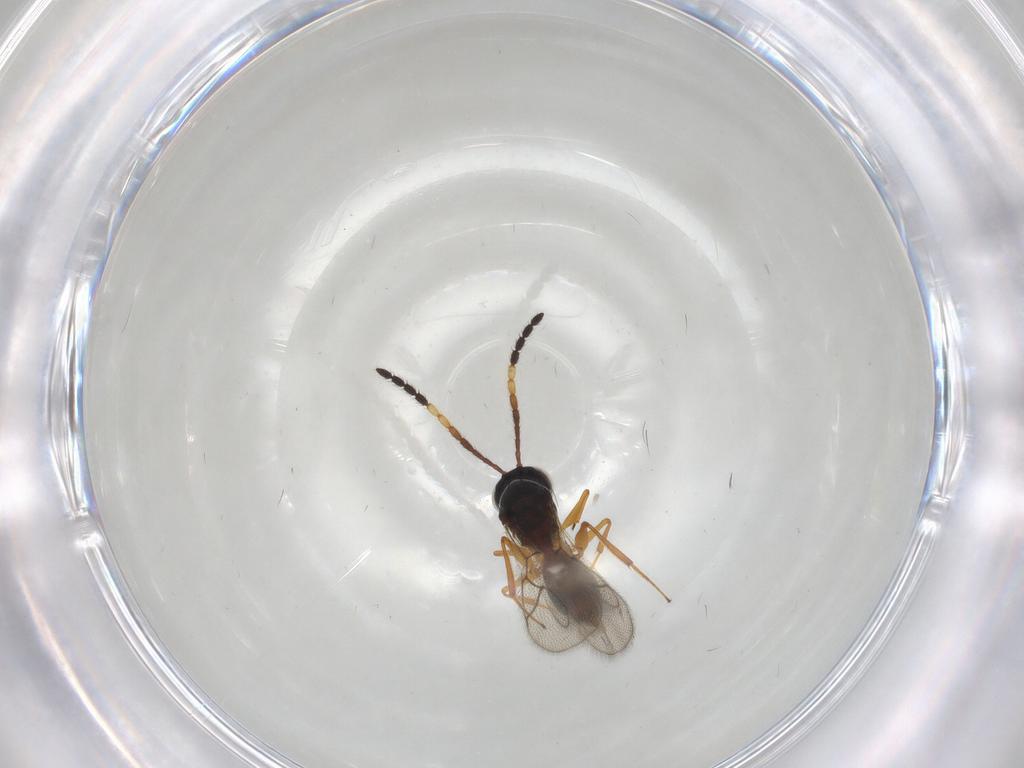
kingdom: Animalia
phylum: Arthropoda
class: Insecta
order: Hymenoptera
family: Figitidae
